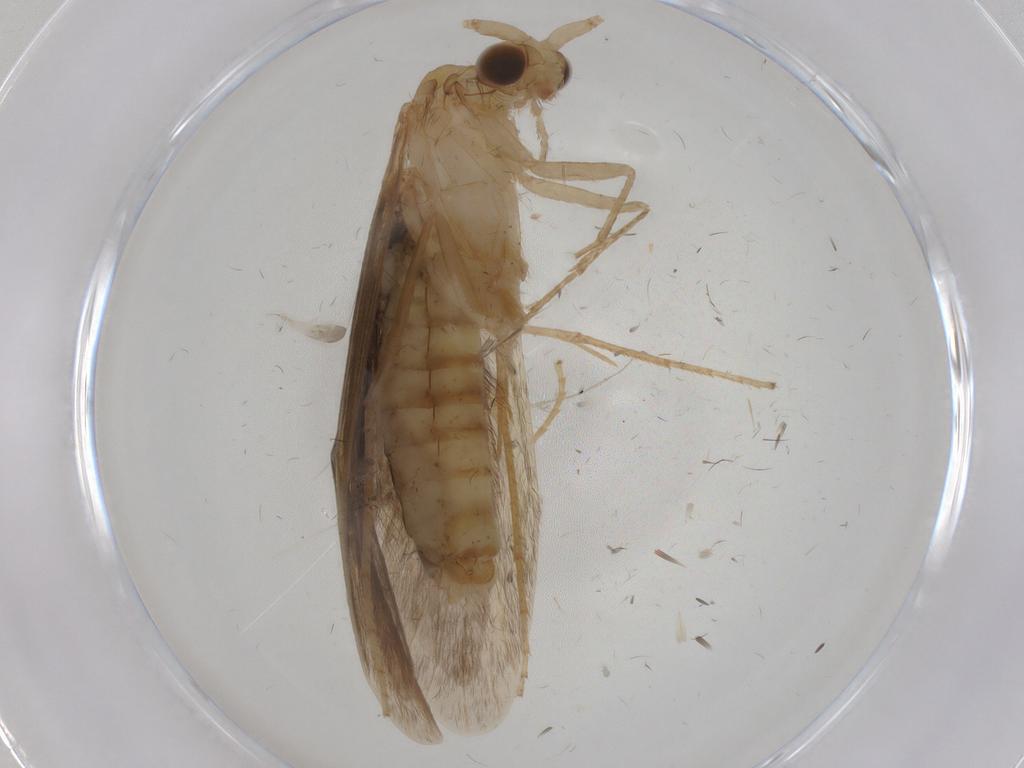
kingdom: Animalia
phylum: Arthropoda
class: Insecta
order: Trichoptera
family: Leptoceridae
